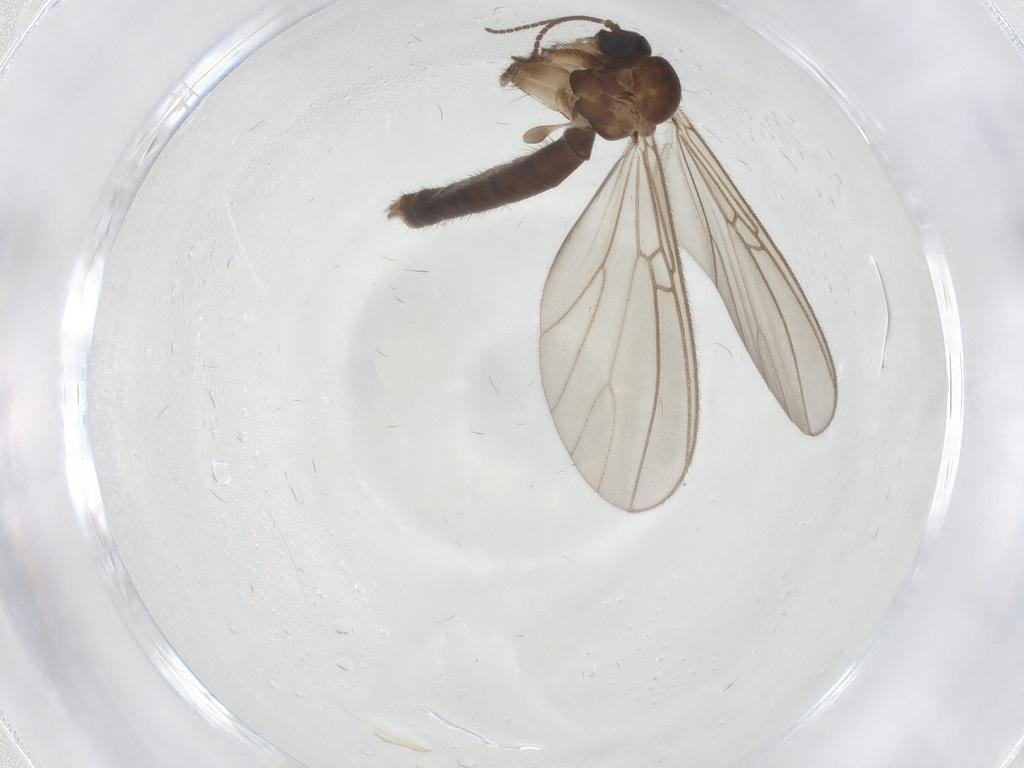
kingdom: Animalia
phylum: Arthropoda
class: Insecta
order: Diptera
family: Mycetophilidae
